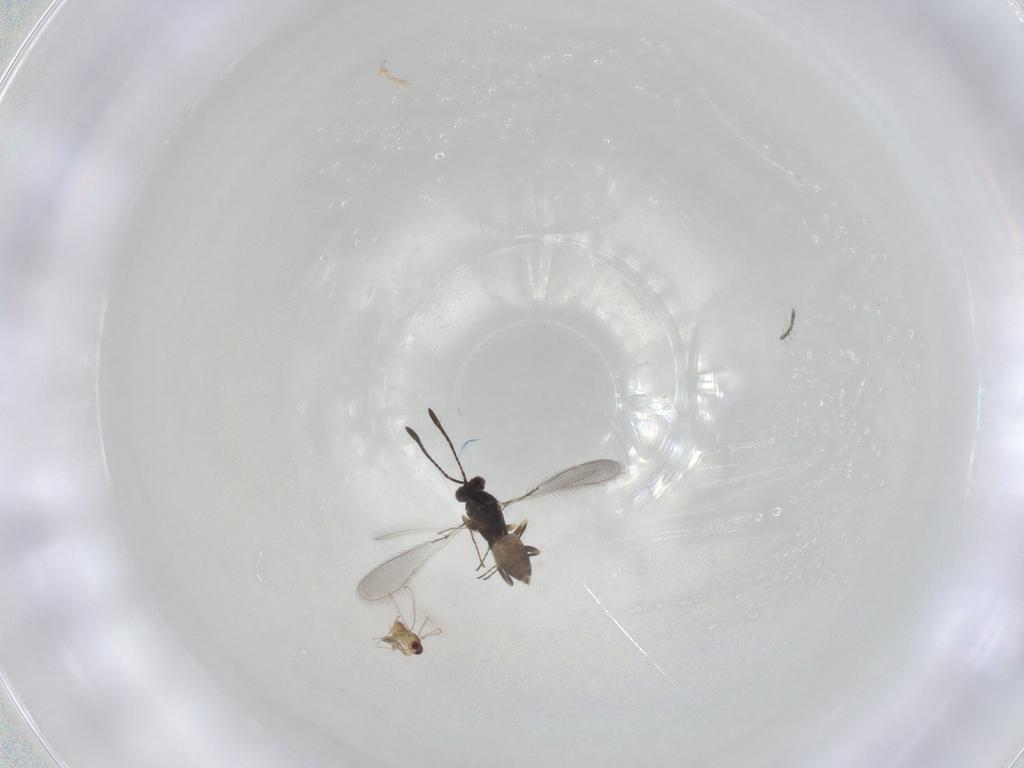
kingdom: Animalia
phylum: Arthropoda
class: Insecta
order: Hymenoptera
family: Mymaridae
